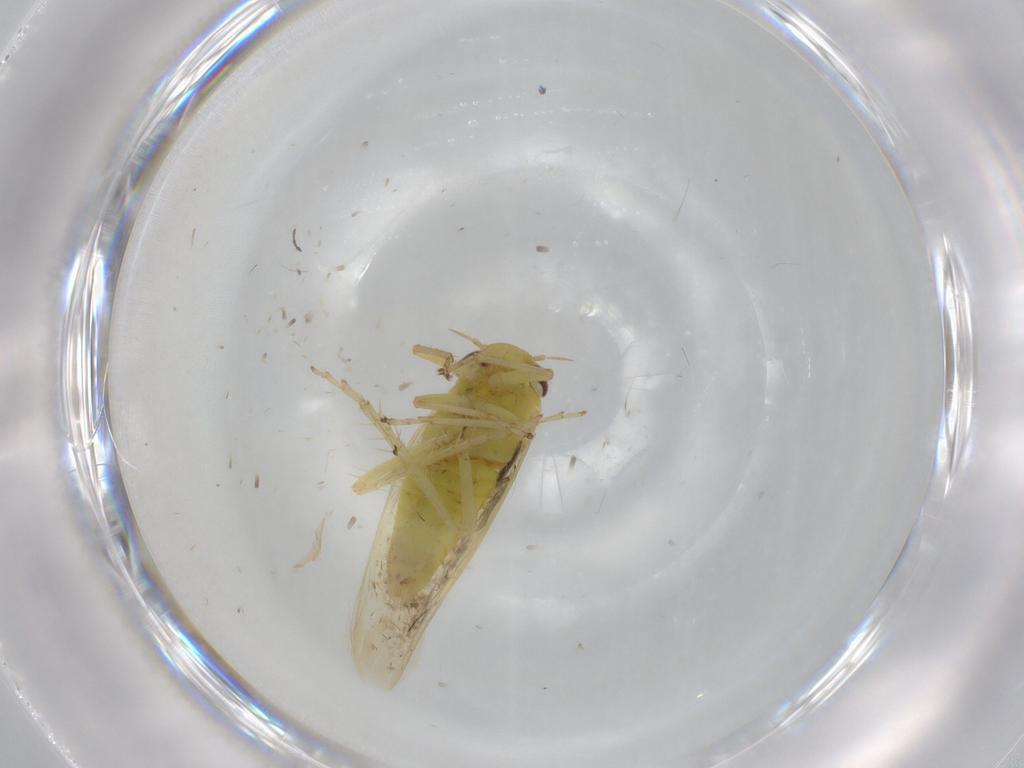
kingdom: Animalia
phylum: Arthropoda
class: Insecta
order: Hemiptera
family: Cicadellidae
